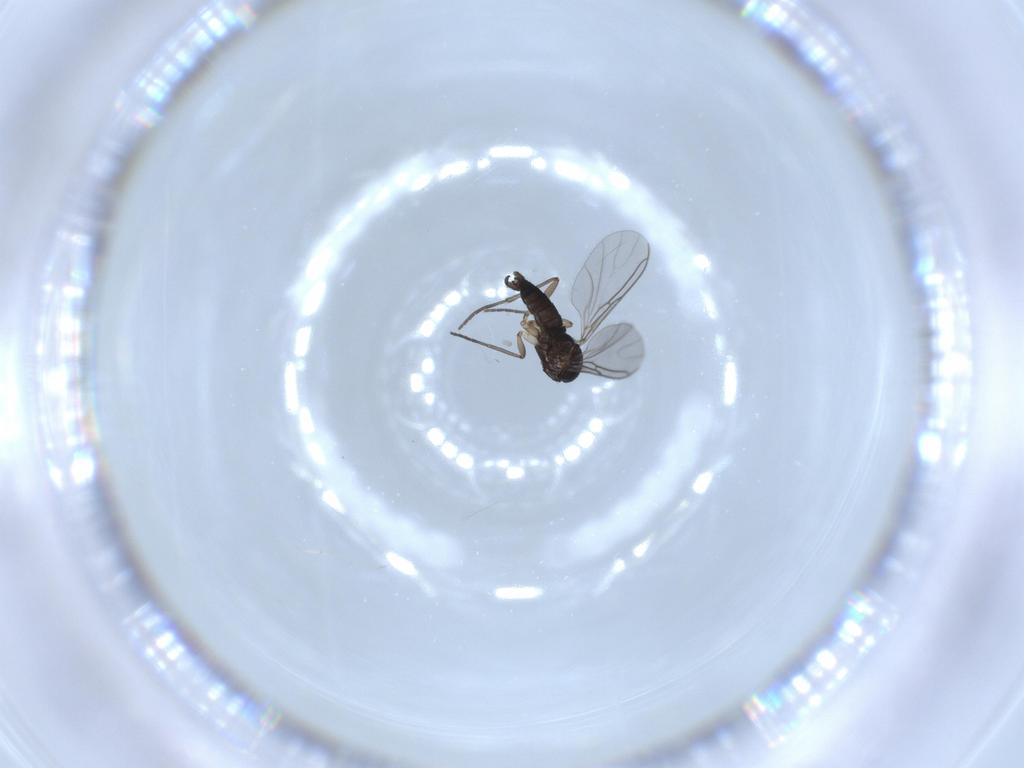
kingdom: Animalia
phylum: Arthropoda
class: Insecta
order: Diptera
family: Sciaridae
